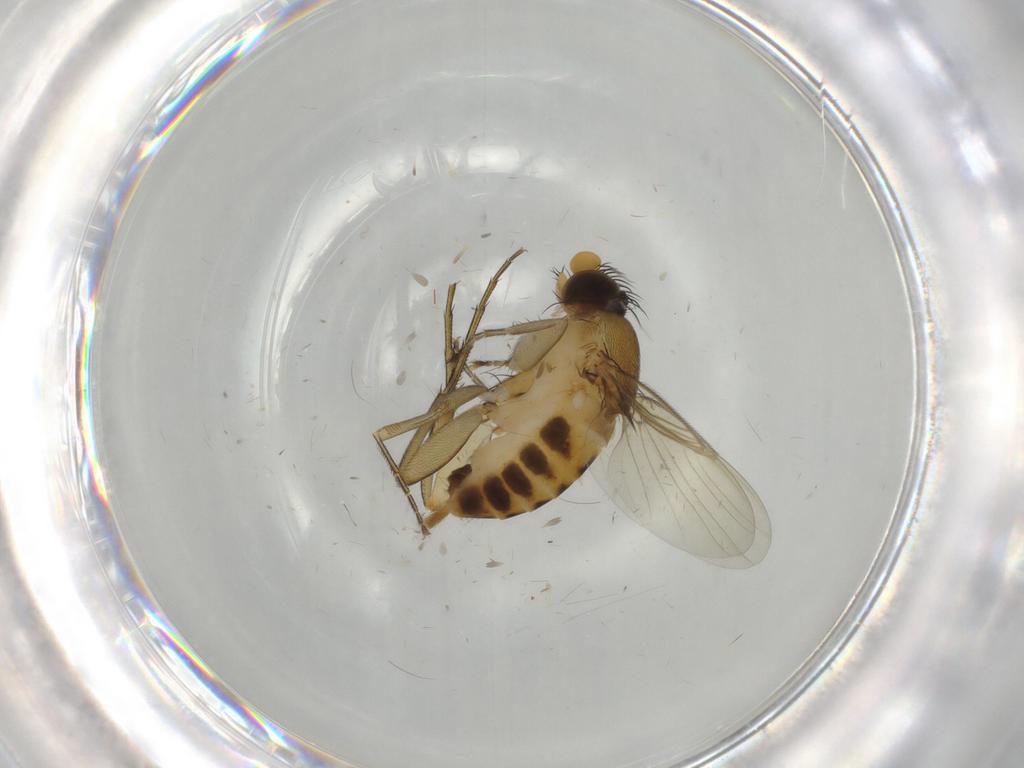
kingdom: Animalia
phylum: Arthropoda
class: Insecta
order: Diptera
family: Phoridae
